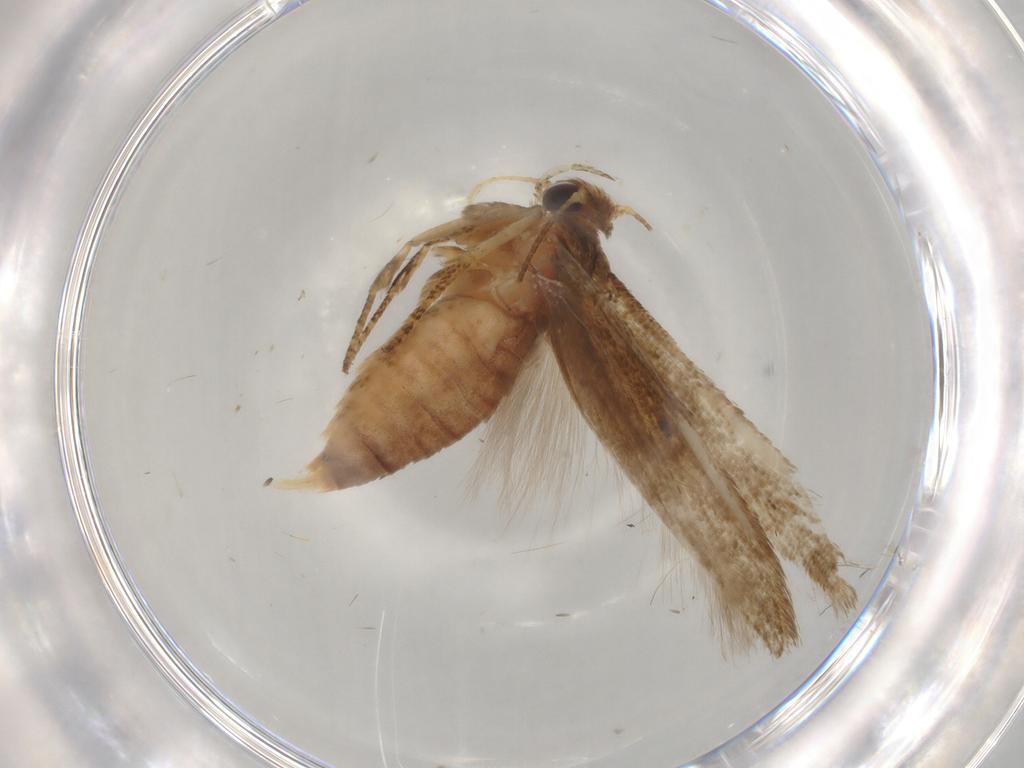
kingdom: Animalia
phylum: Arthropoda
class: Insecta
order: Lepidoptera
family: Blastobasidae
